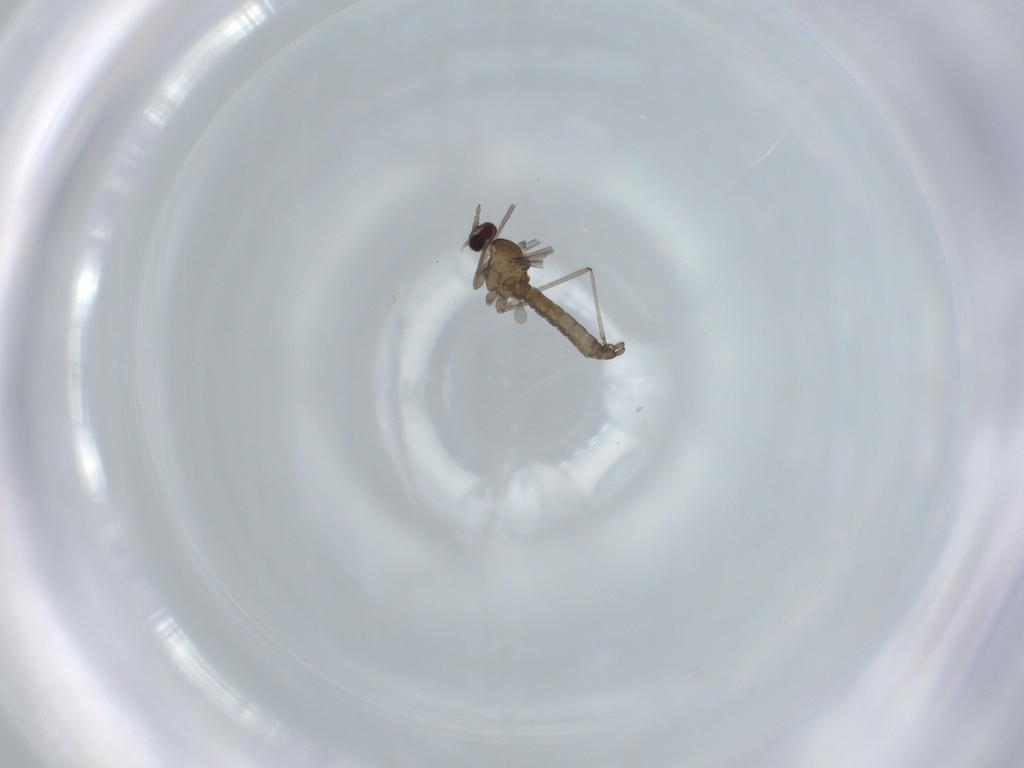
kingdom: Animalia
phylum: Arthropoda
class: Insecta
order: Diptera
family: Cecidomyiidae
